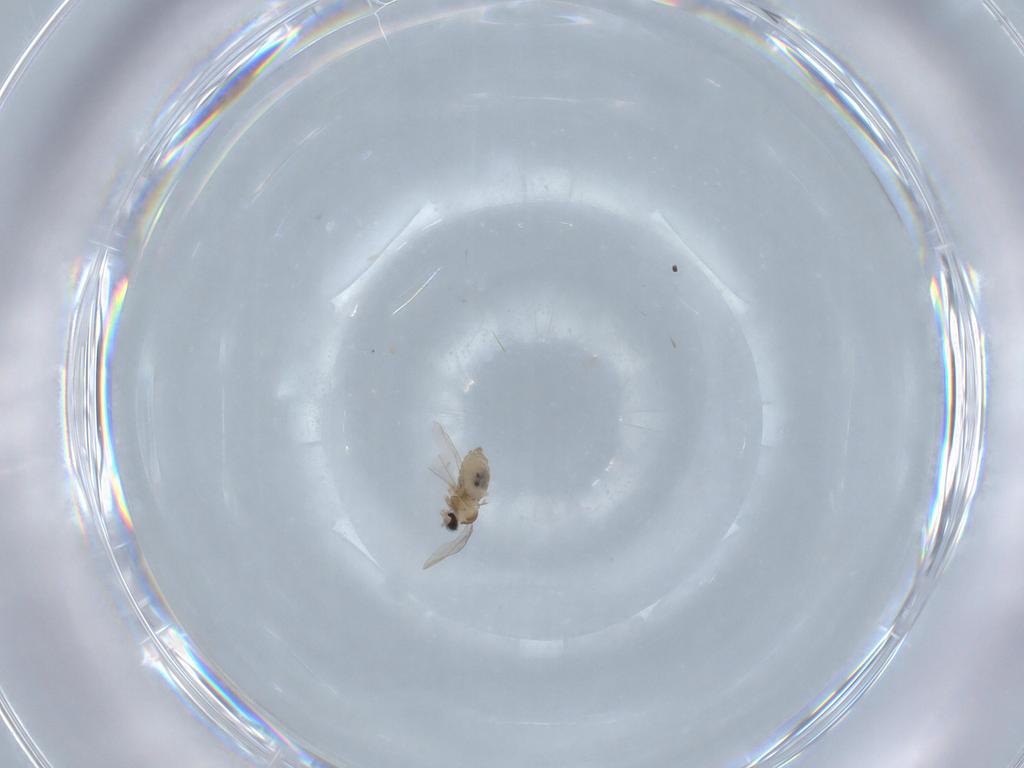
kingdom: Animalia
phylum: Arthropoda
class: Insecta
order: Diptera
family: Cecidomyiidae
